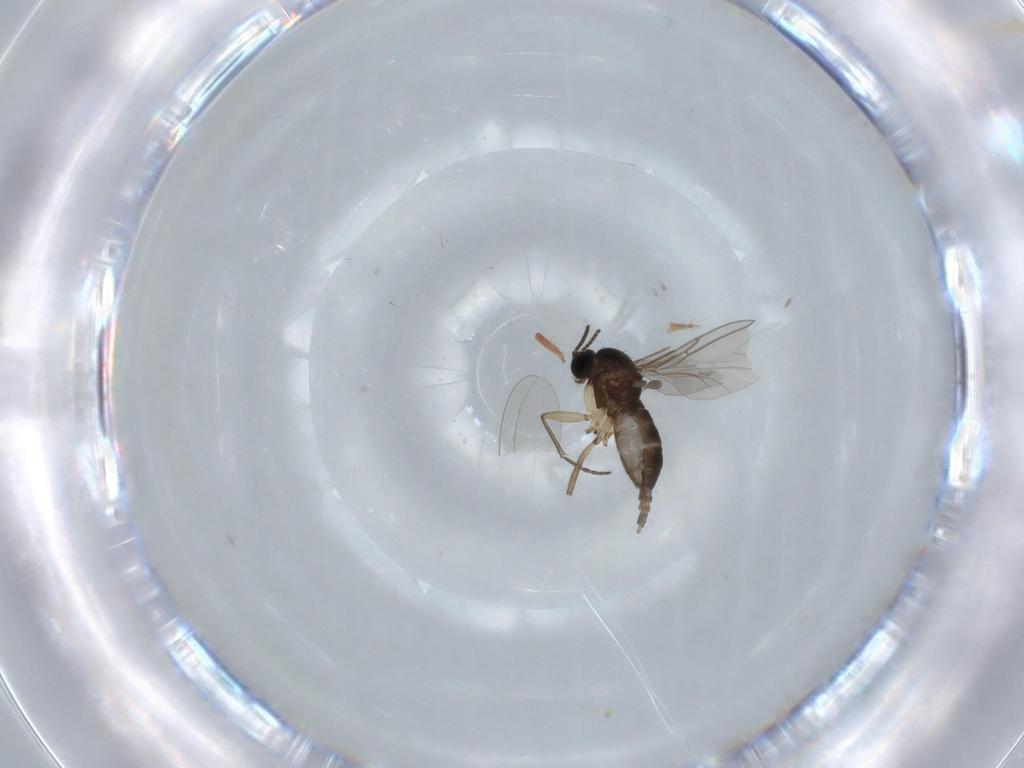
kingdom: Animalia
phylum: Arthropoda
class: Insecta
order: Diptera
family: Sciaridae
